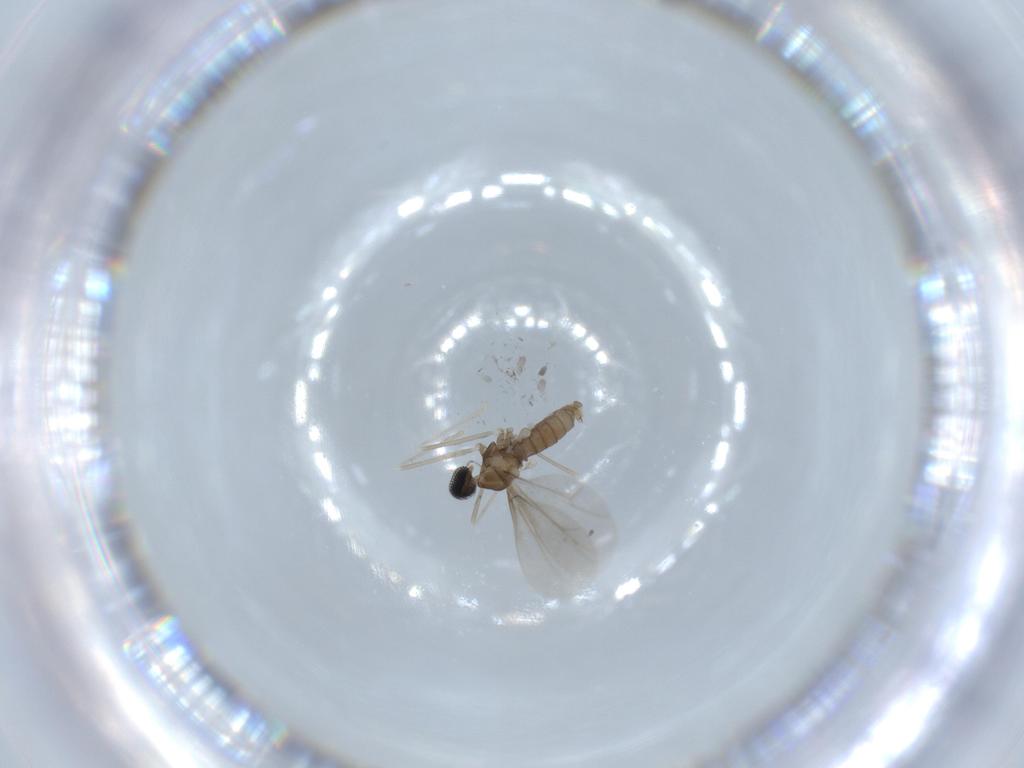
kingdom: Animalia
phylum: Arthropoda
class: Insecta
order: Diptera
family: Cecidomyiidae
